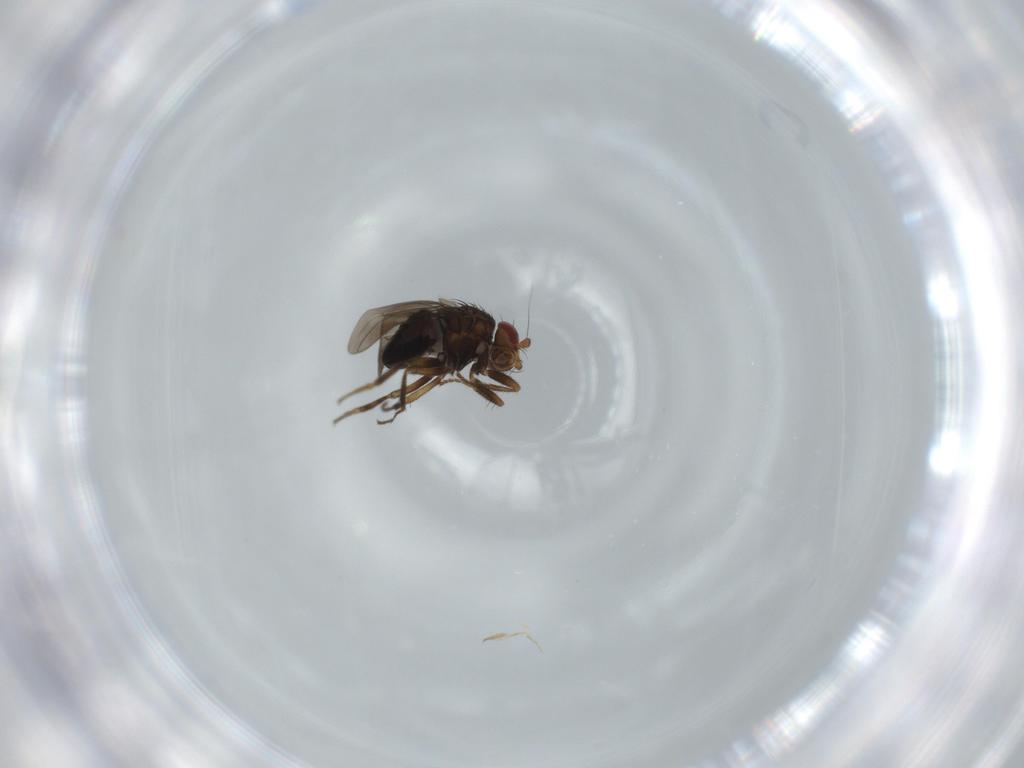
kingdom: Animalia
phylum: Arthropoda
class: Insecta
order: Diptera
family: Sphaeroceridae
